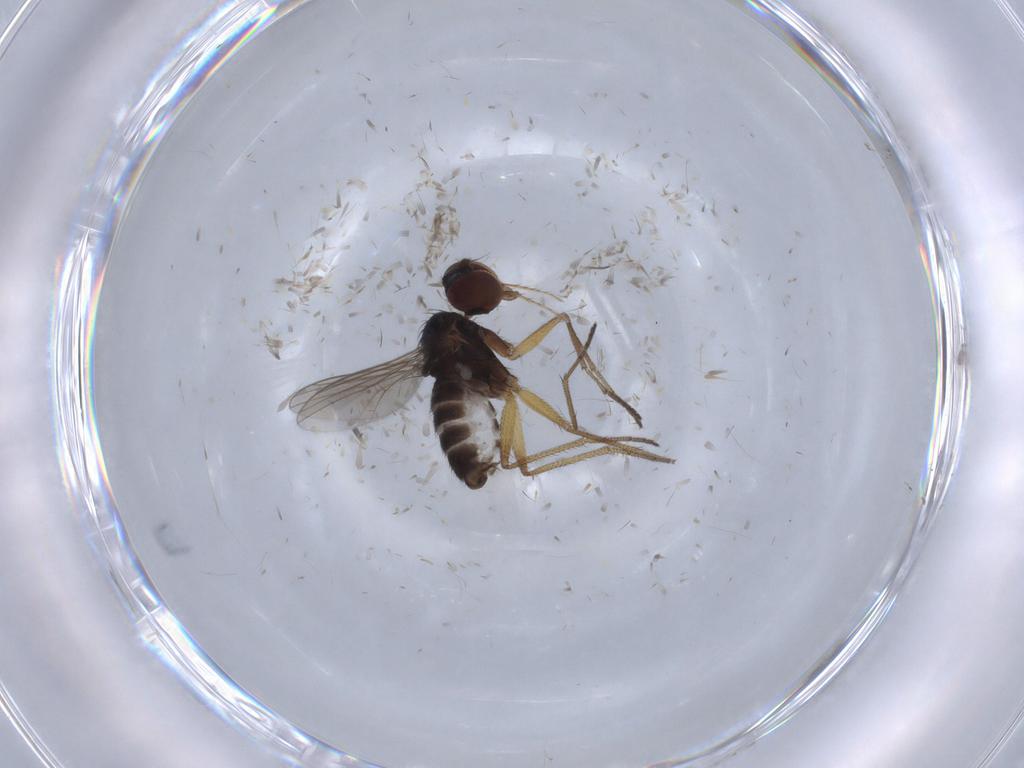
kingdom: Animalia
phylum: Arthropoda
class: Insecta
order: Diptera
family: Dolichopodidae
